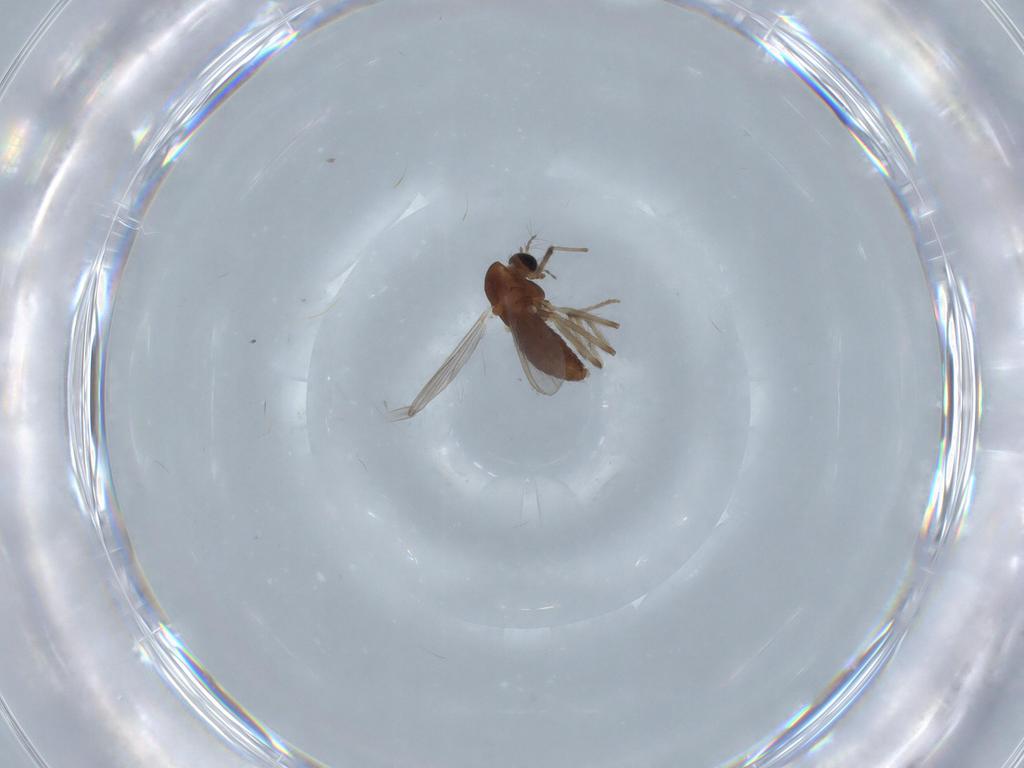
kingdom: Animalia
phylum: Arthropoda
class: Insecta
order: Diptera
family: Chironomidae
